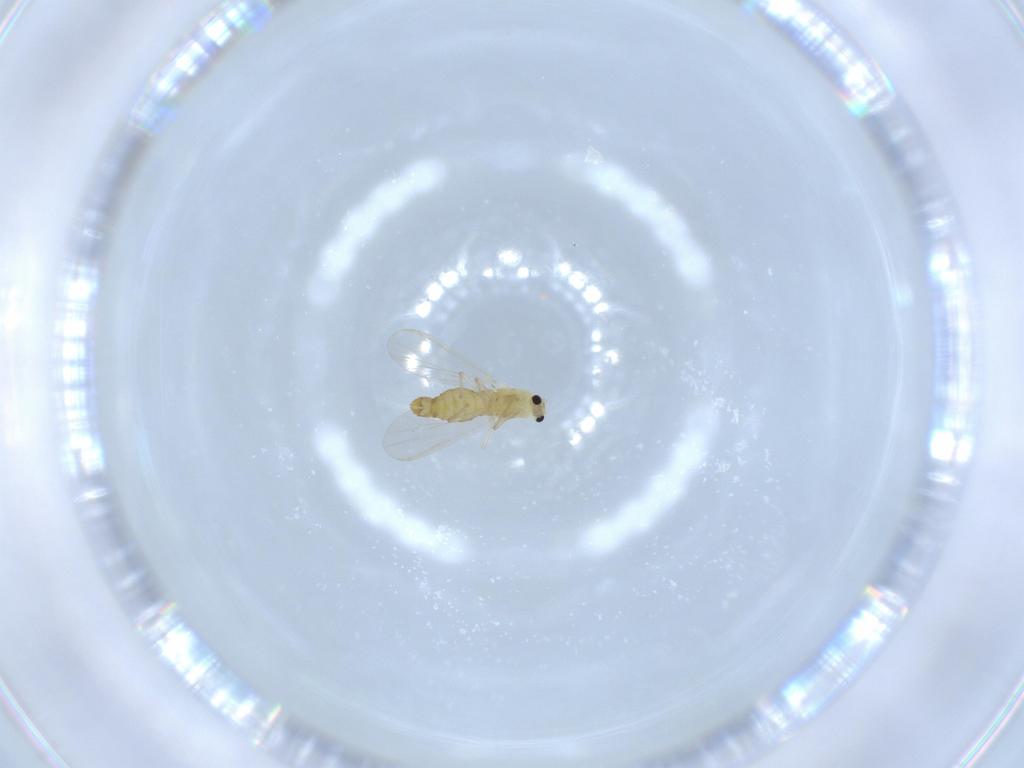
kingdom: Animalia
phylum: Arthropoda
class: Insecta
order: Diptera
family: Chironomidae
